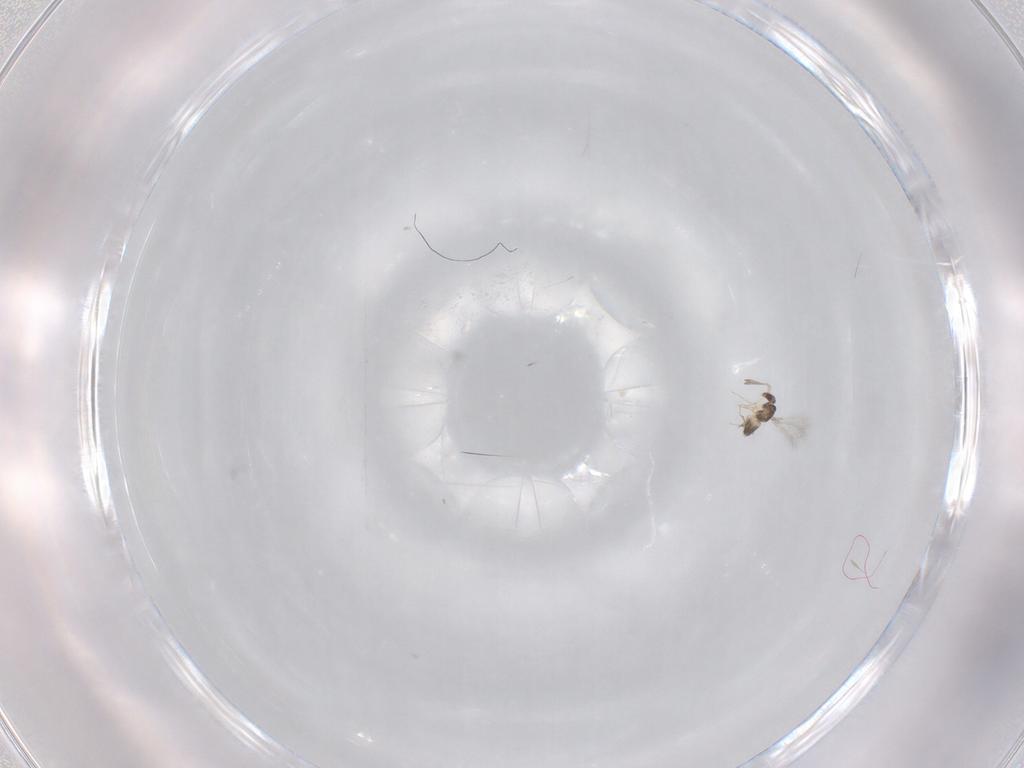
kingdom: Animalia
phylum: Arthropoda
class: Insecta
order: Hymenoptera
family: Mymaridae
